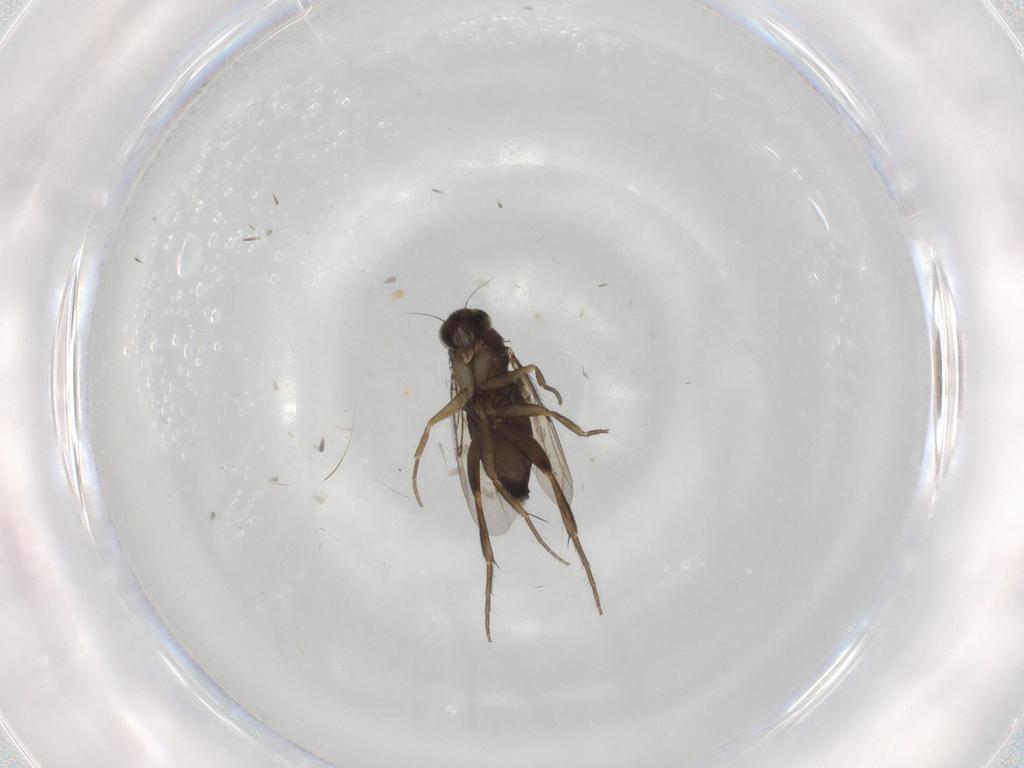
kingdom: Animalia
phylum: Arthropoda
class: Insecta
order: Diptera
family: Phoridae
